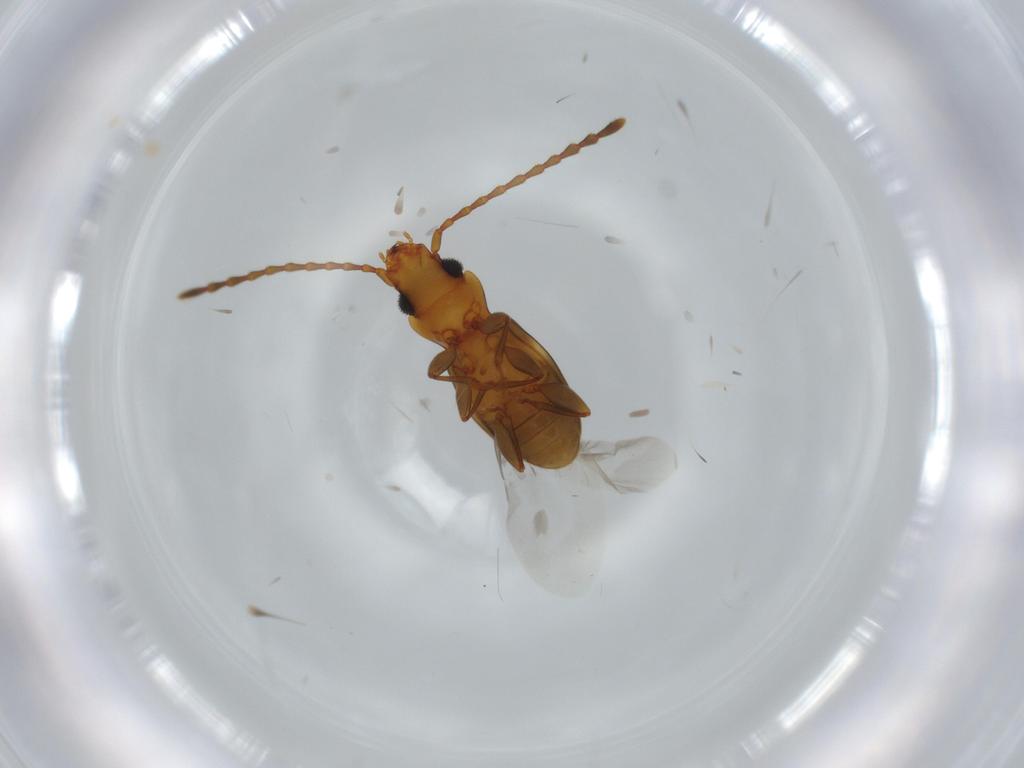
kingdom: Animalia
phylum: Arthropoda
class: Insecta
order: Coleoptera
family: Laemophloeidae
